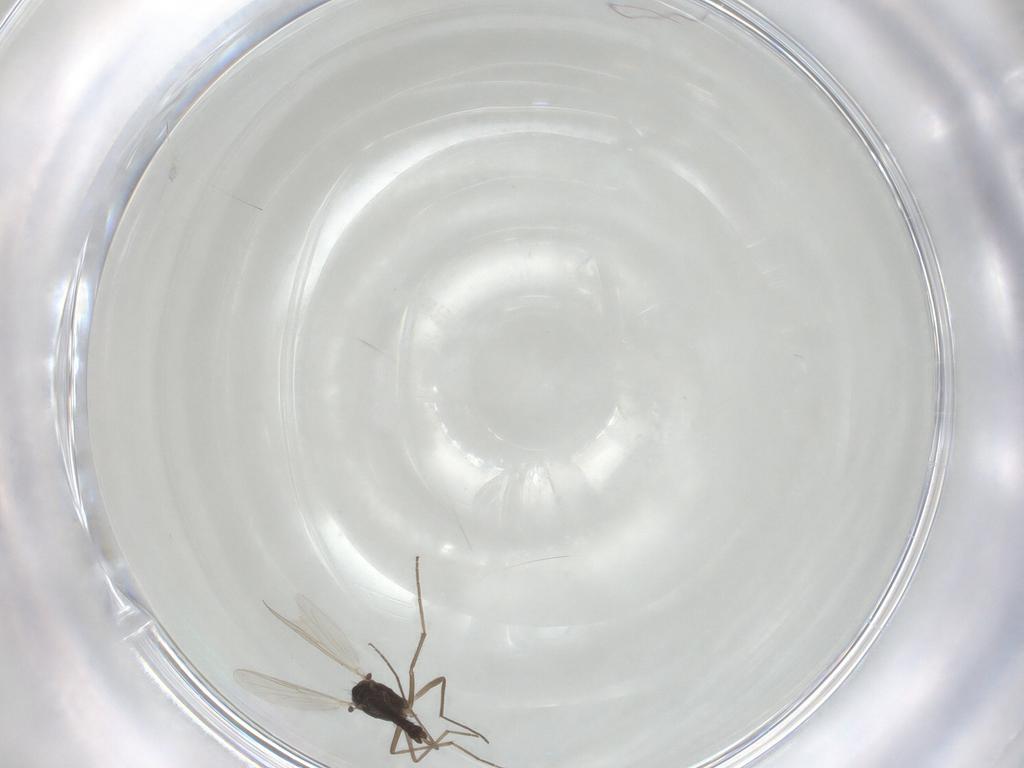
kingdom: Animalia
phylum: Arthropoda
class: Insecta
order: Diptera
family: Chironomidae
